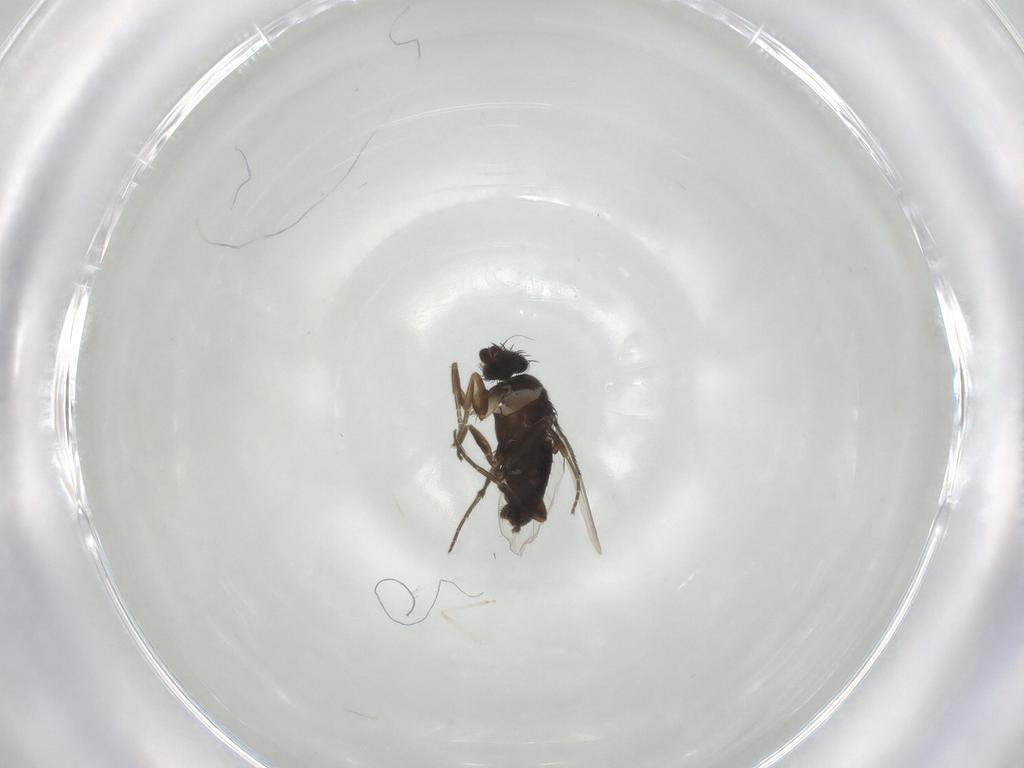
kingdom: Animalia
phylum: Arthropoda
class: Insecta
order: Diptera
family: Phoridae
